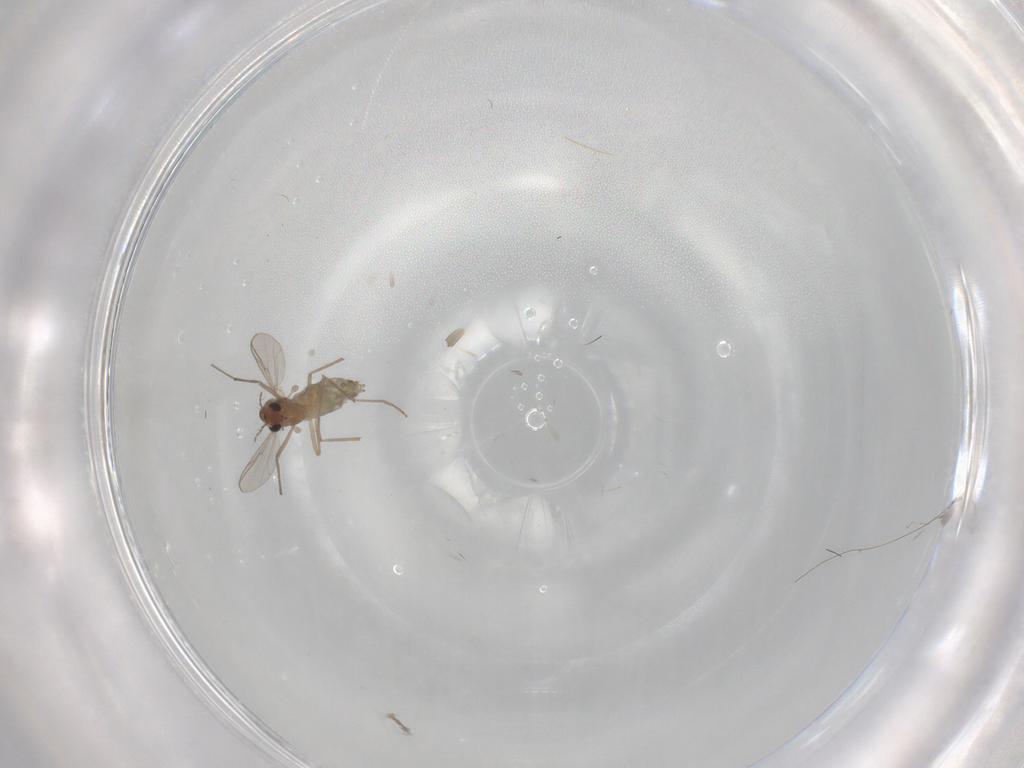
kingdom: Animalia
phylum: Arthropoda
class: Insecta
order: Diptera
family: Chironomidae
